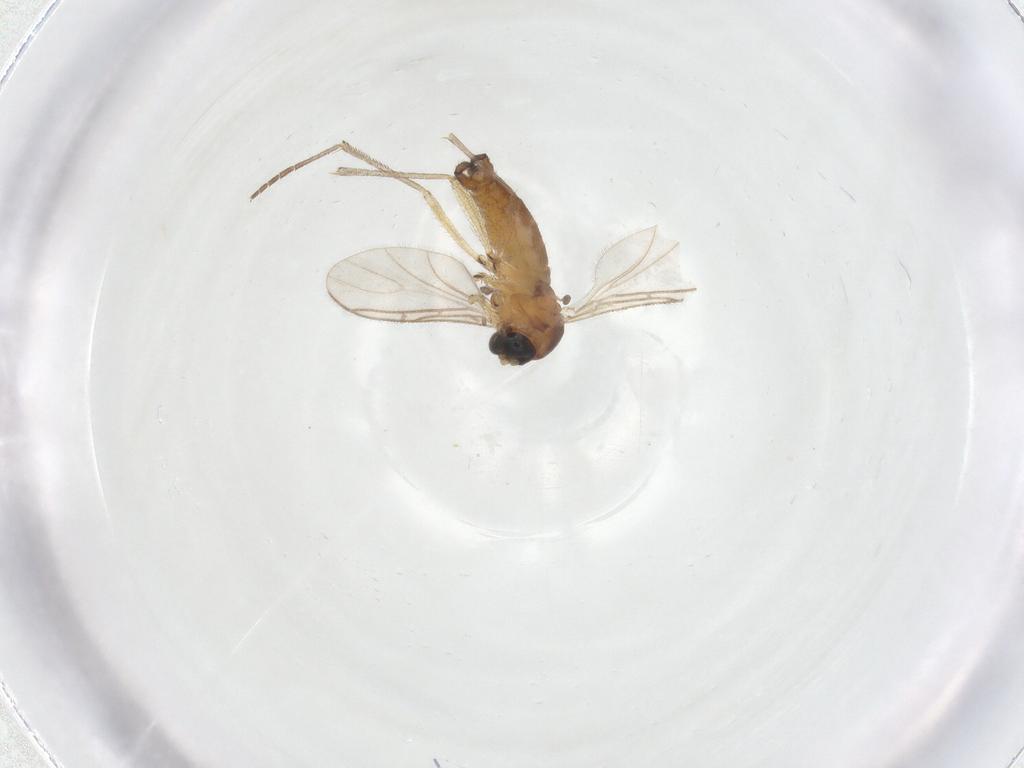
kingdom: Animalia
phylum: Arthropoda
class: Insecta
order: Diptera
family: Sciaridae
